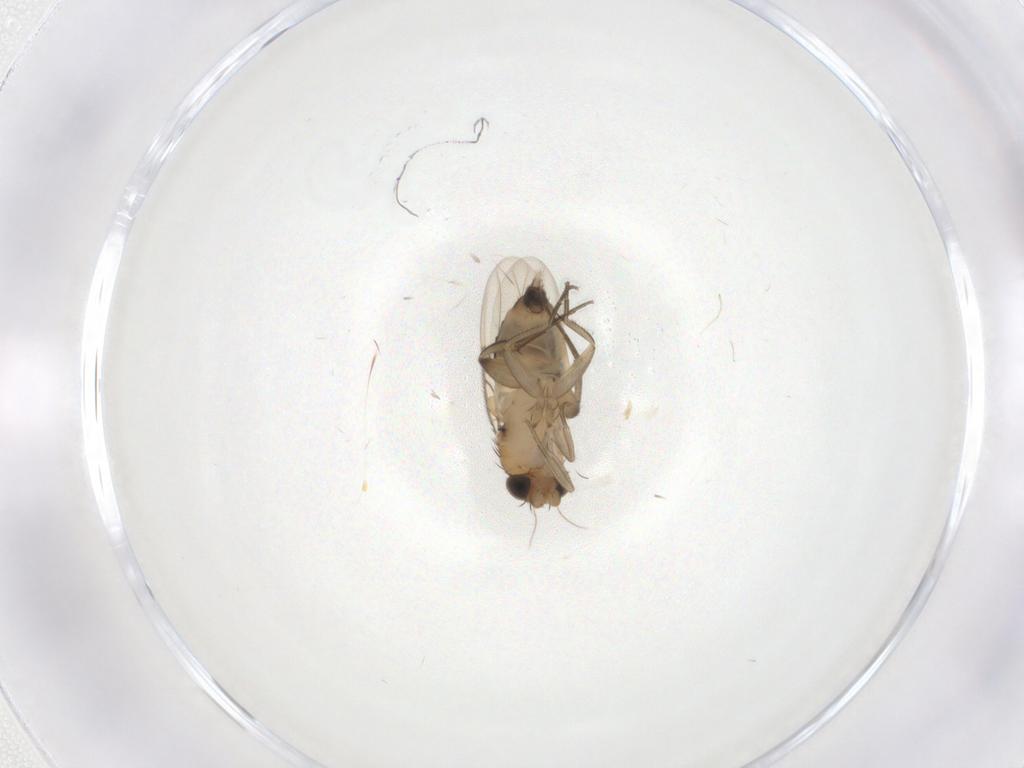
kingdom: Animalia
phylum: Arthropoda
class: Insecta
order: Diptera
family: Phoridae
